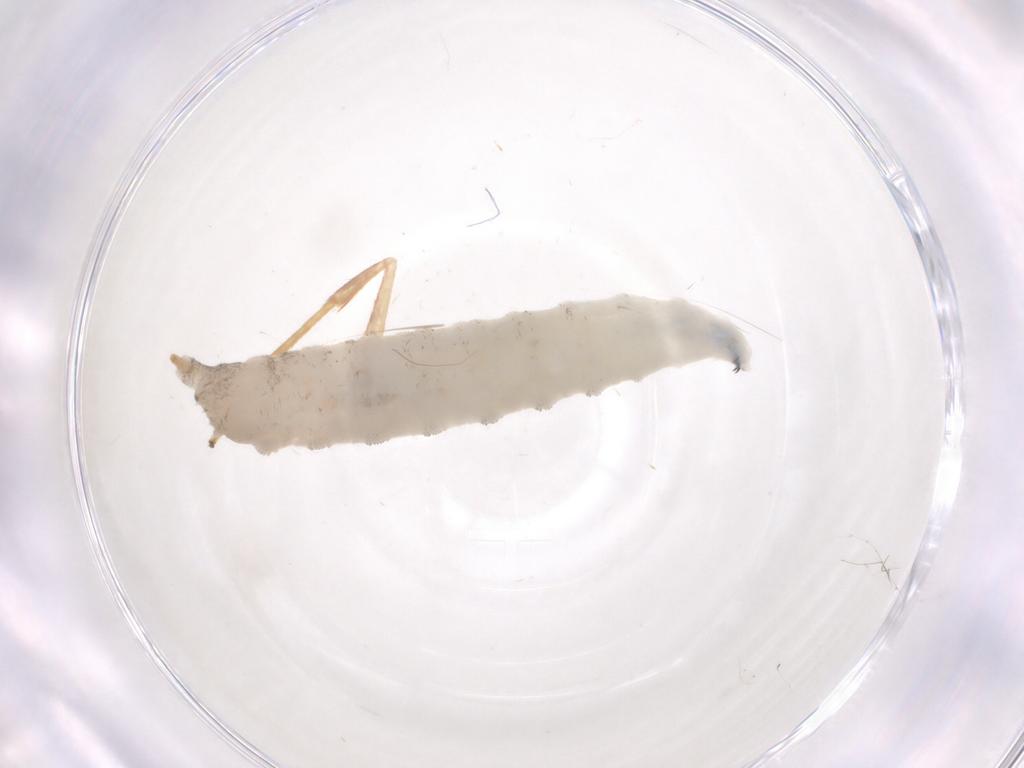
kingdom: Animalia
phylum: Arthropoda
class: Insecta
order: Diptera
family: Drosophilidae
